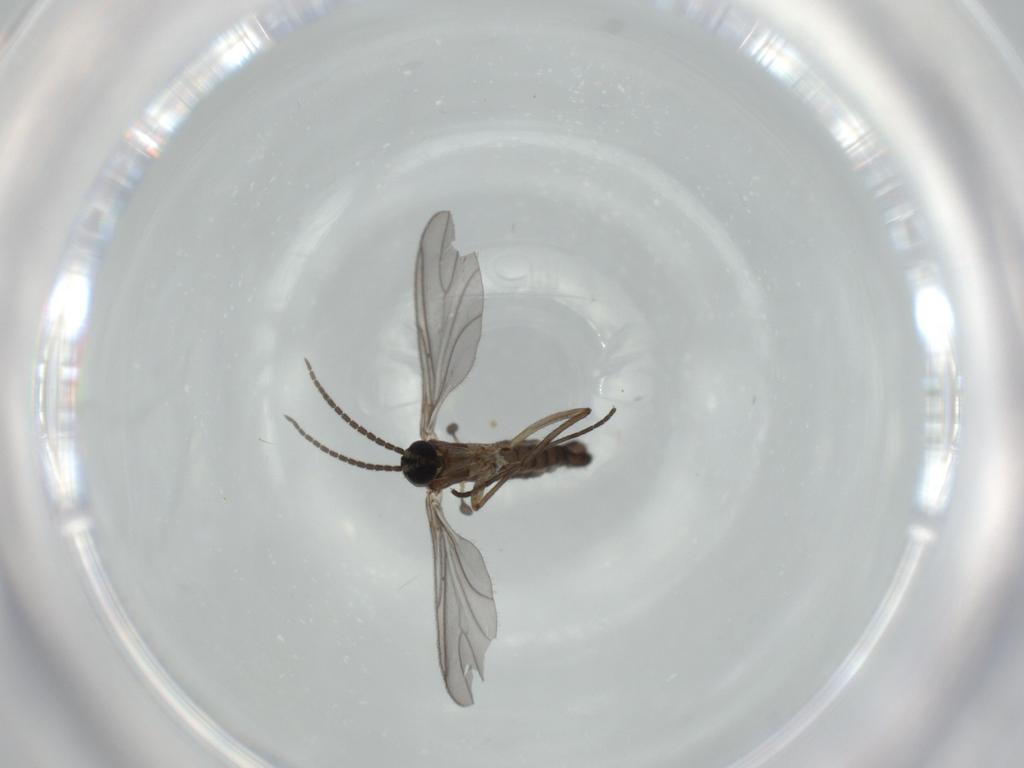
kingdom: Animalia
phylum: Arthropoda
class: Insecta
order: Diptera
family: Sciaridae
